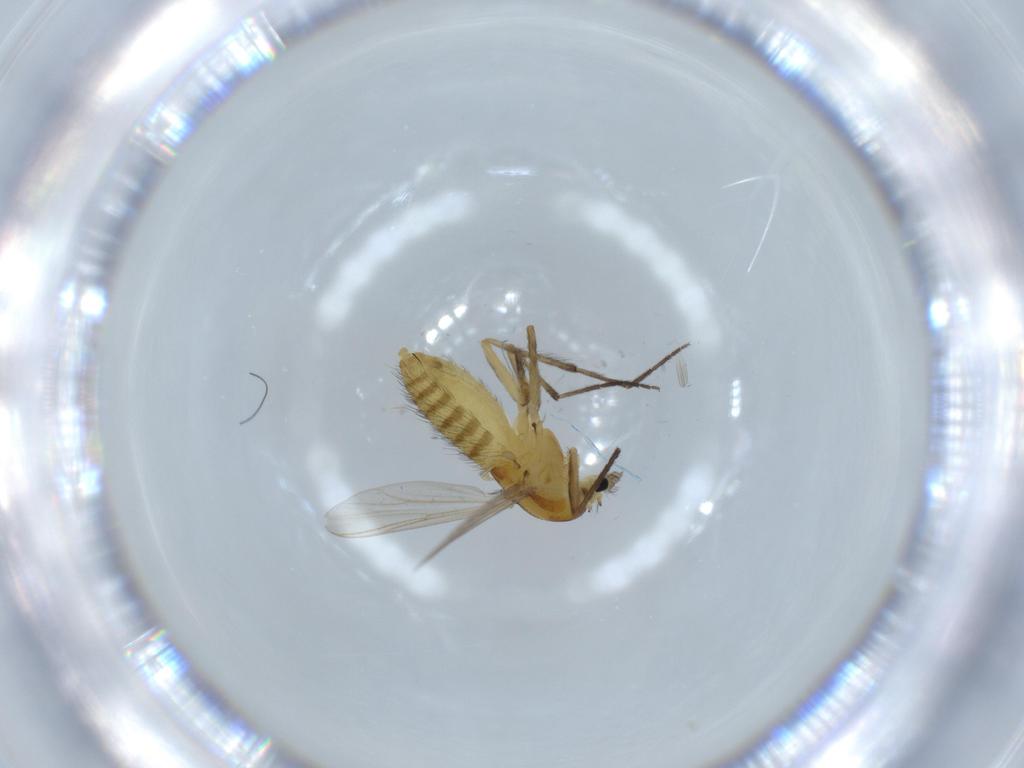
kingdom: Animalia
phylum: Arthropoda
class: Insecta
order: Diptera
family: Chironomidae
